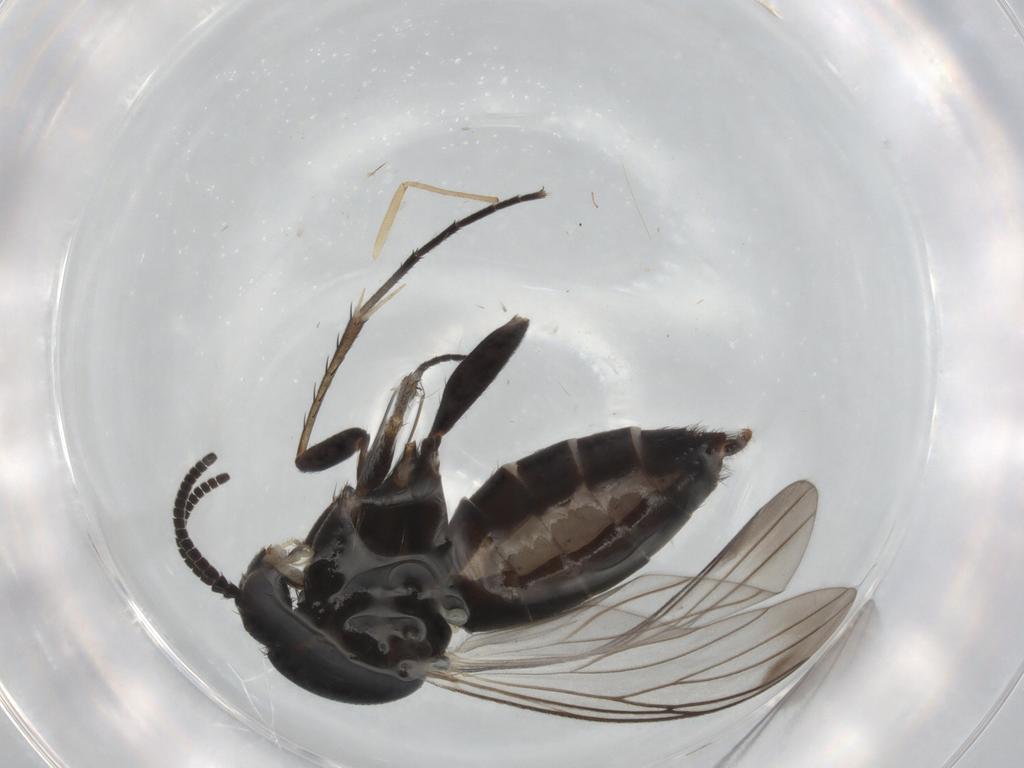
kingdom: Animalia
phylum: Arthropoda
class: Insecta
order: Diptera
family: Mycetophilidae
